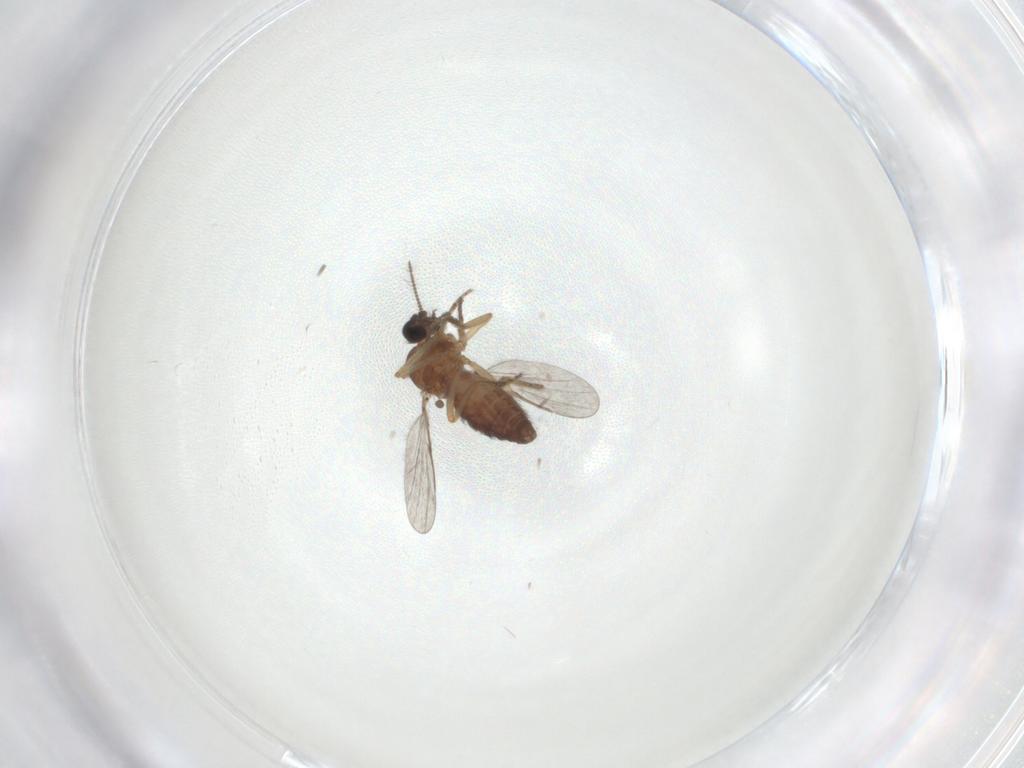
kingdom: Animalia
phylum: Arthropoda
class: Insecta
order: Diptera
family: Ceratopogonidae
